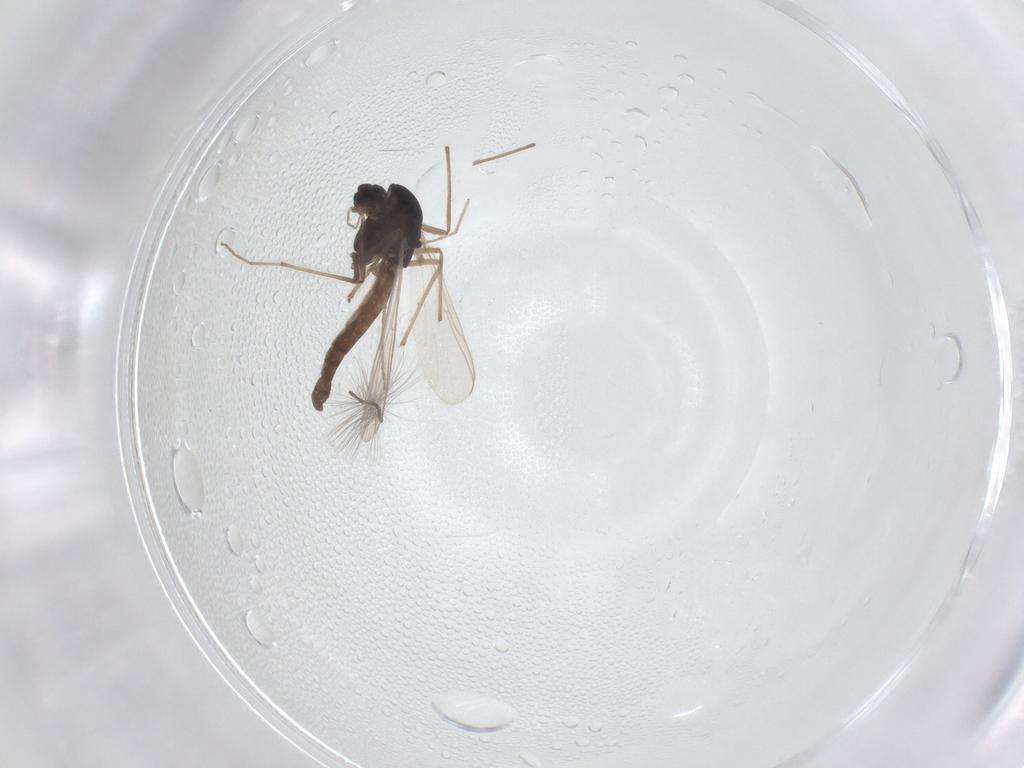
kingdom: Animalia
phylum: Arthropoda
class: Insecta
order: Diptera
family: Chironomidae
